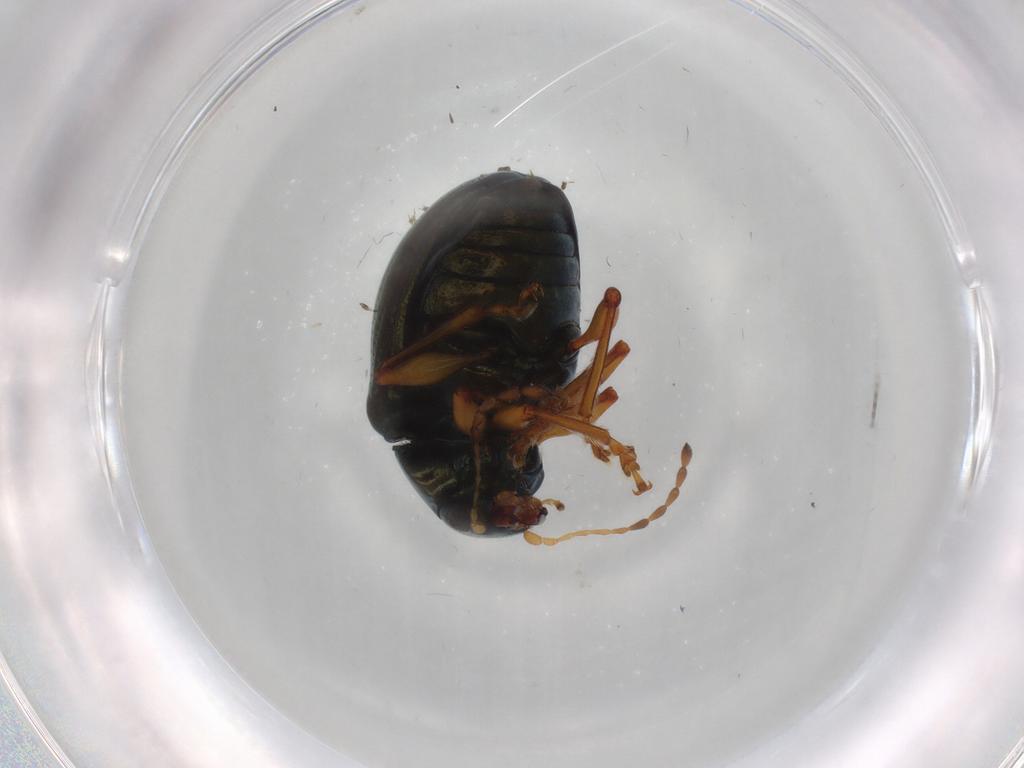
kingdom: Animalia
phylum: Arthropoda
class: Insecta
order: Coleoptera
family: Chrysomelidae
